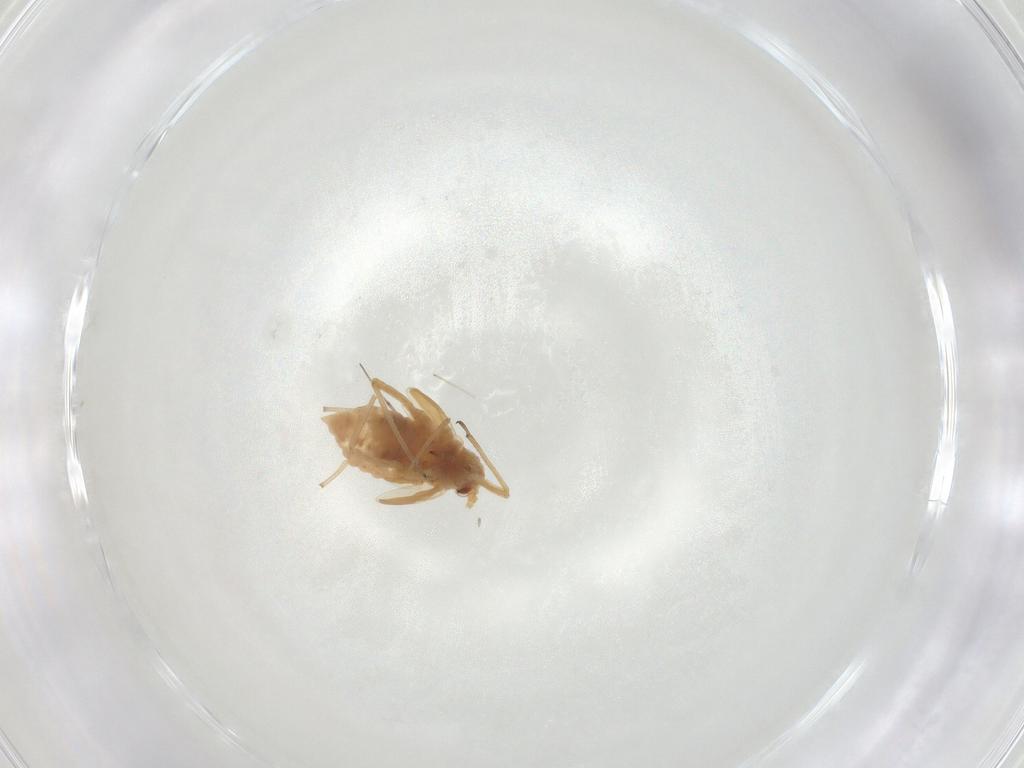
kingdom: Animalia
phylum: Arthropoda
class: Insecta
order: Hemiptera
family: Aphididae
